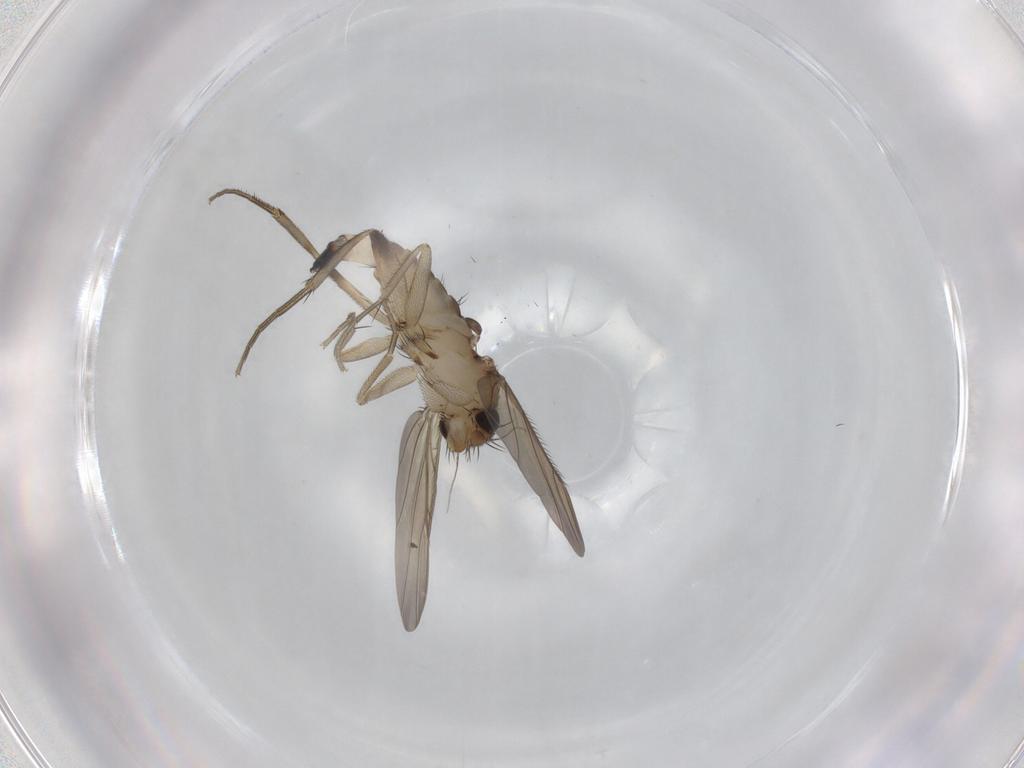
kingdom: Animalia
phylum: Arthropoda
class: Insecta
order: Diptera
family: Phoridae
